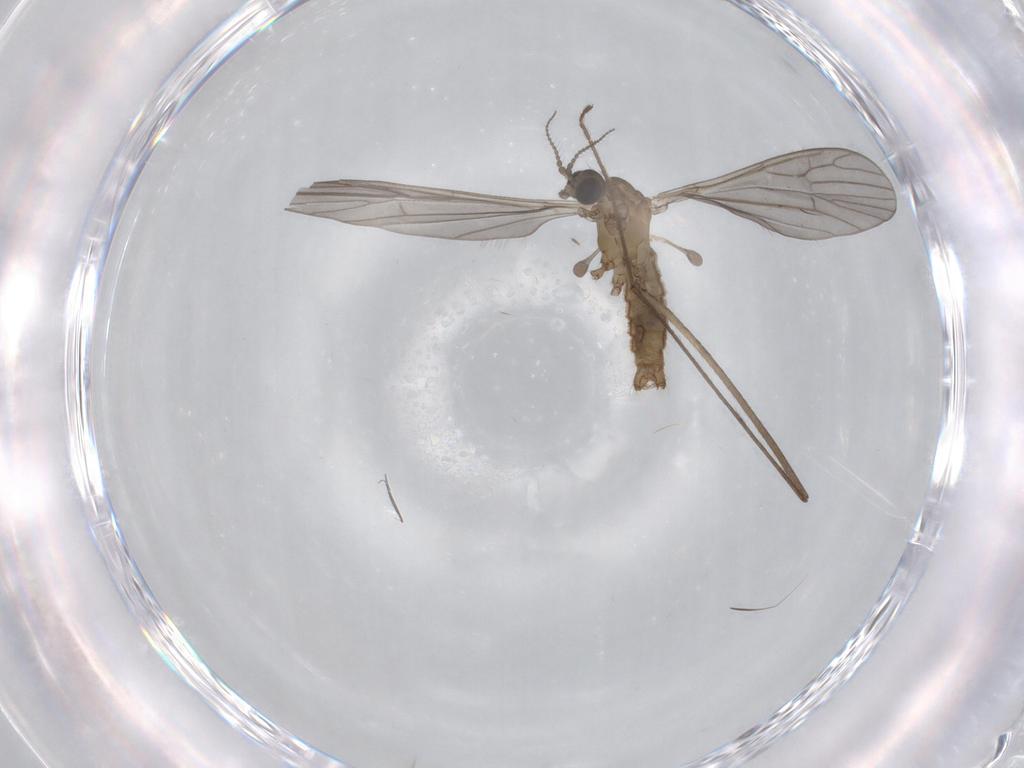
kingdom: Animalia
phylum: Arthropoda
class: Insecta
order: Diptera
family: Limoniidae
